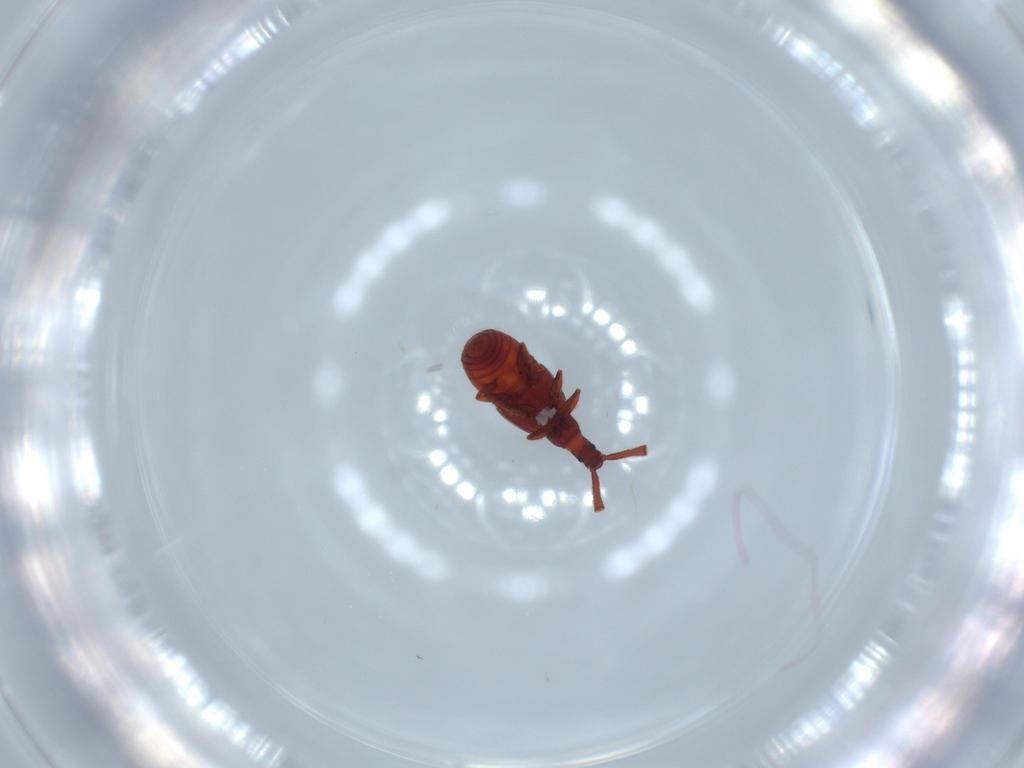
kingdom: Animalia
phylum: Arthropoda
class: Insecta
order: Coleoptera
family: Staphylinidae
